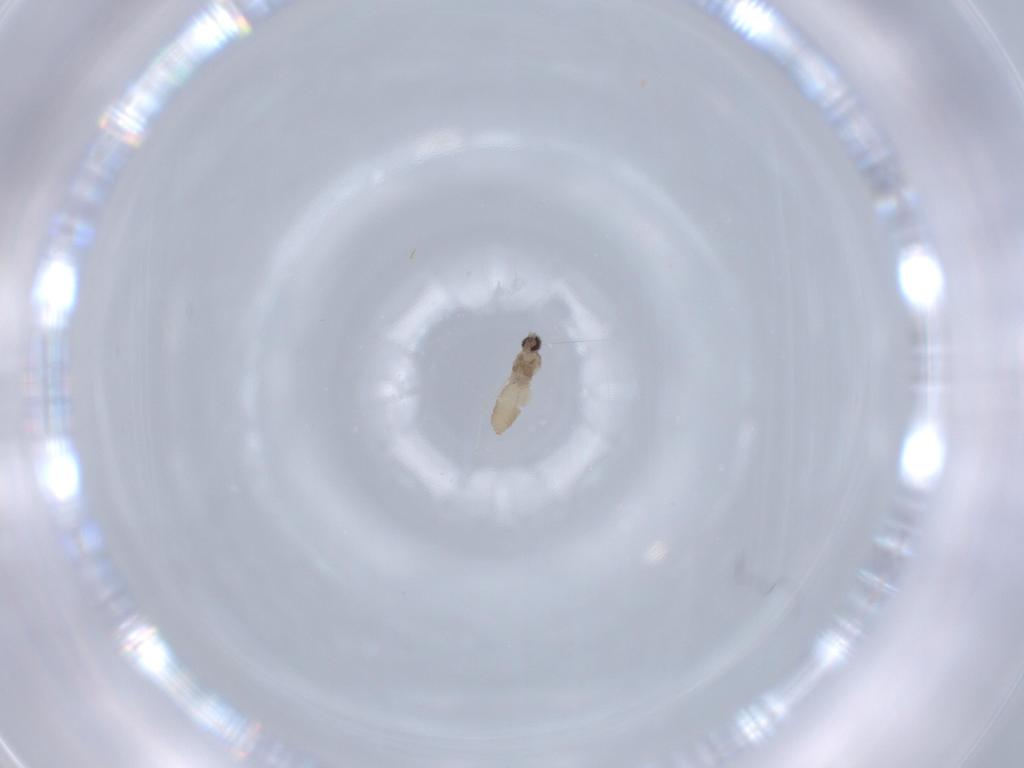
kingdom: Animalia
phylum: Arthropoda
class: Insecta
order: Diptera
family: Cecidomyiidae
